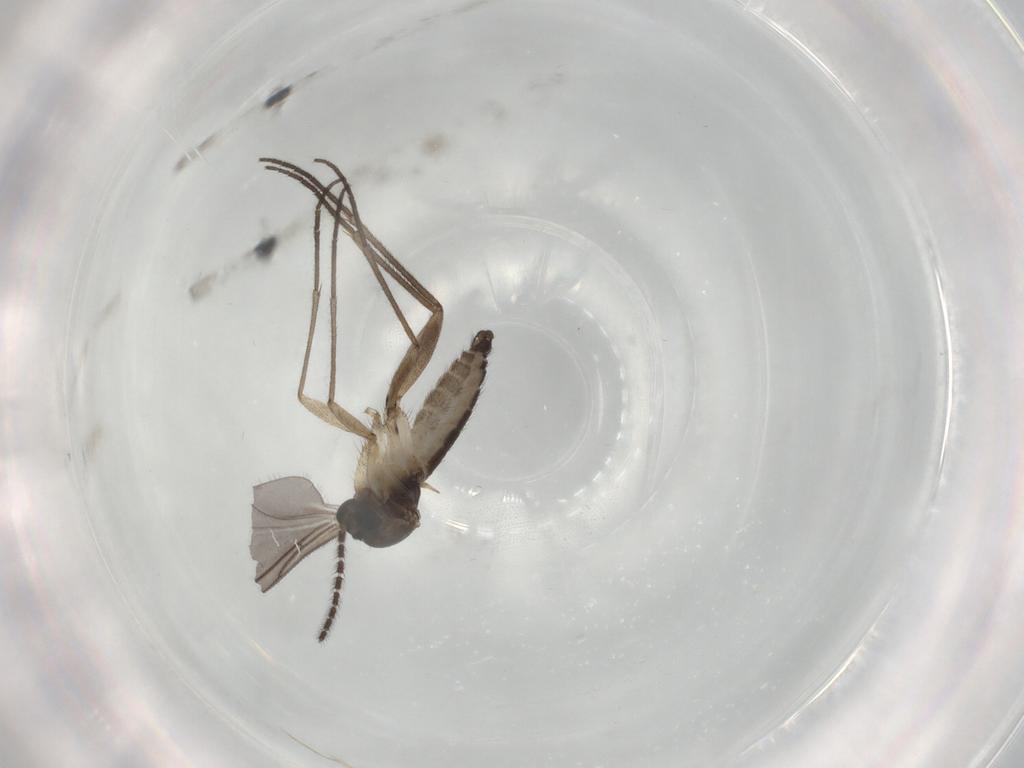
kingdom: Animalia
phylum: Arthropoda
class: Insecta
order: Diptera
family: Sciaridae
